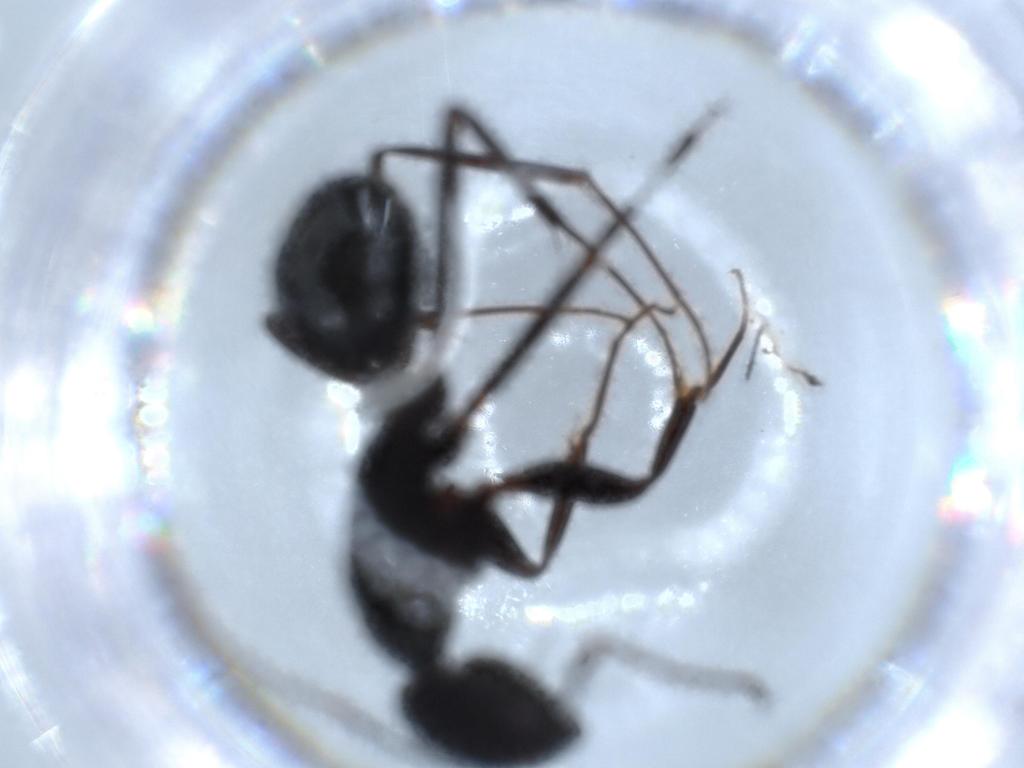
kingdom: Animalia
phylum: Arthropoda
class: Insecta
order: Hymenoptera
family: Formicidae
